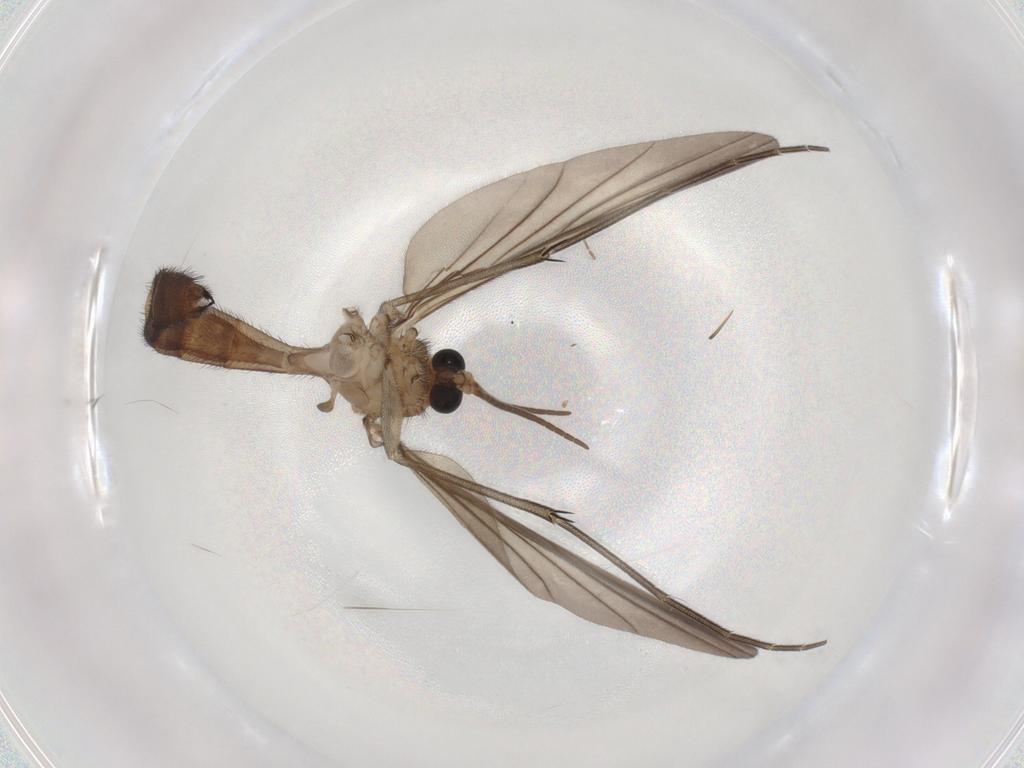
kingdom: Animalia
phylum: Arthropoda
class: Insecta
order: Diptera
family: Keroplatidae
